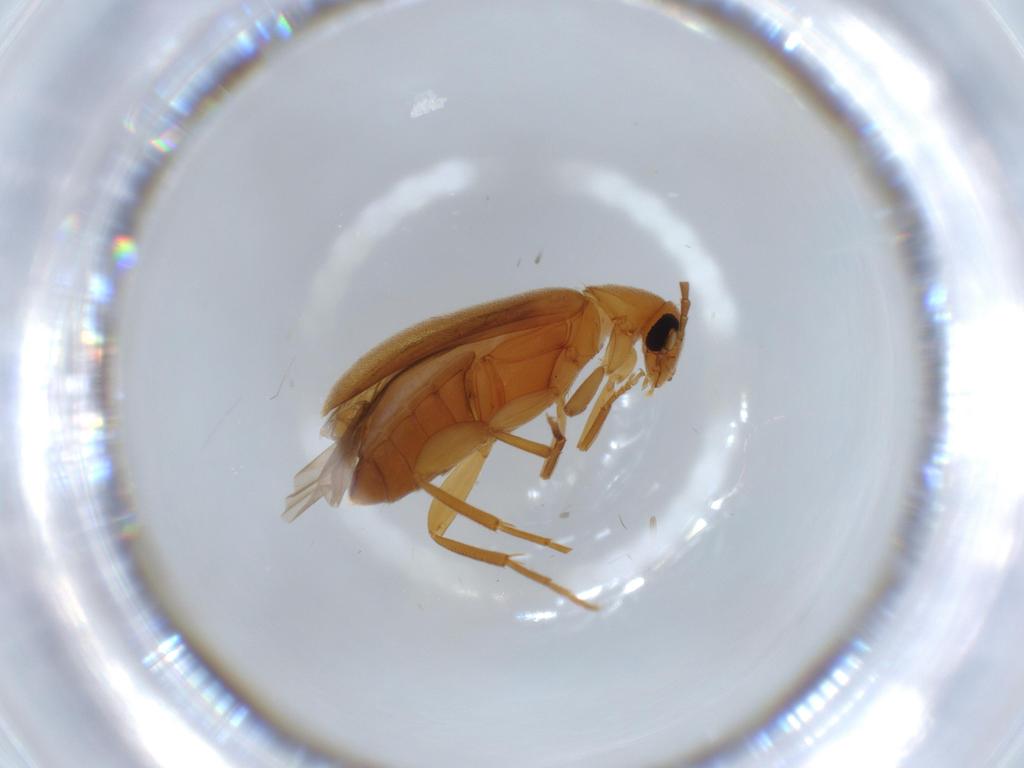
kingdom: Animalia
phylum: Arthropoda
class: Insecta
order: Coleoptera
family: Scraptiidae
